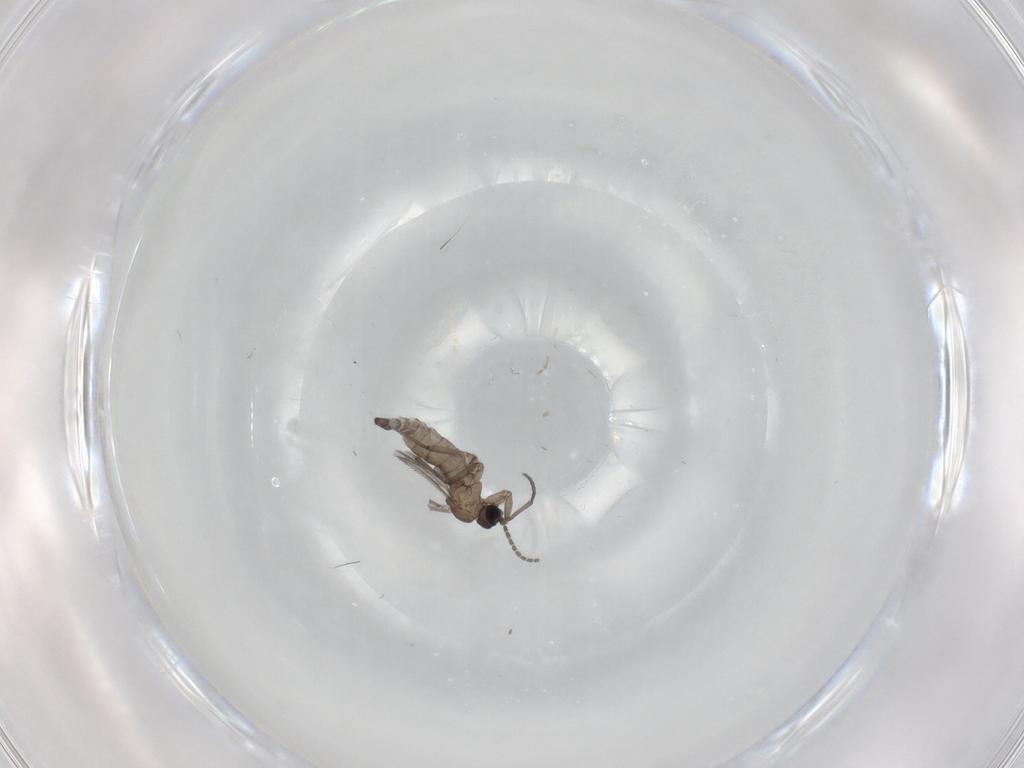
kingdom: Animalia
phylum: Arthropoda
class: Insecta
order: Diptera
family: Sciaridae
